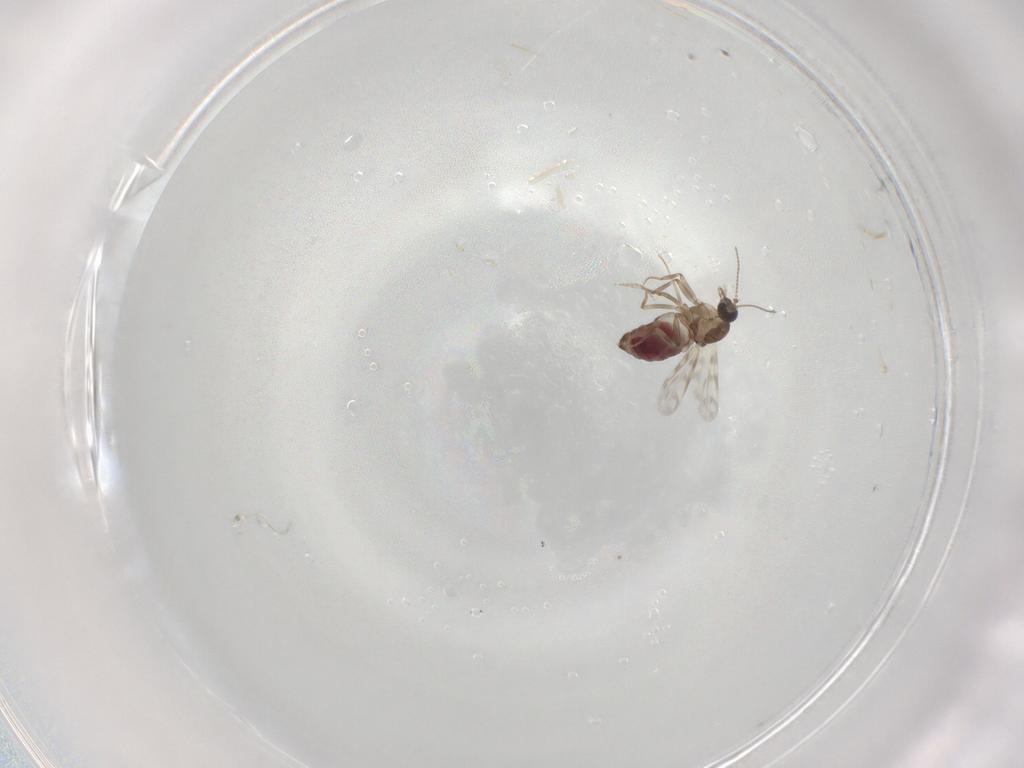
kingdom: Animalia
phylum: Arthropoda
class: Insecta
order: Diptera
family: Ceratopogonidae
